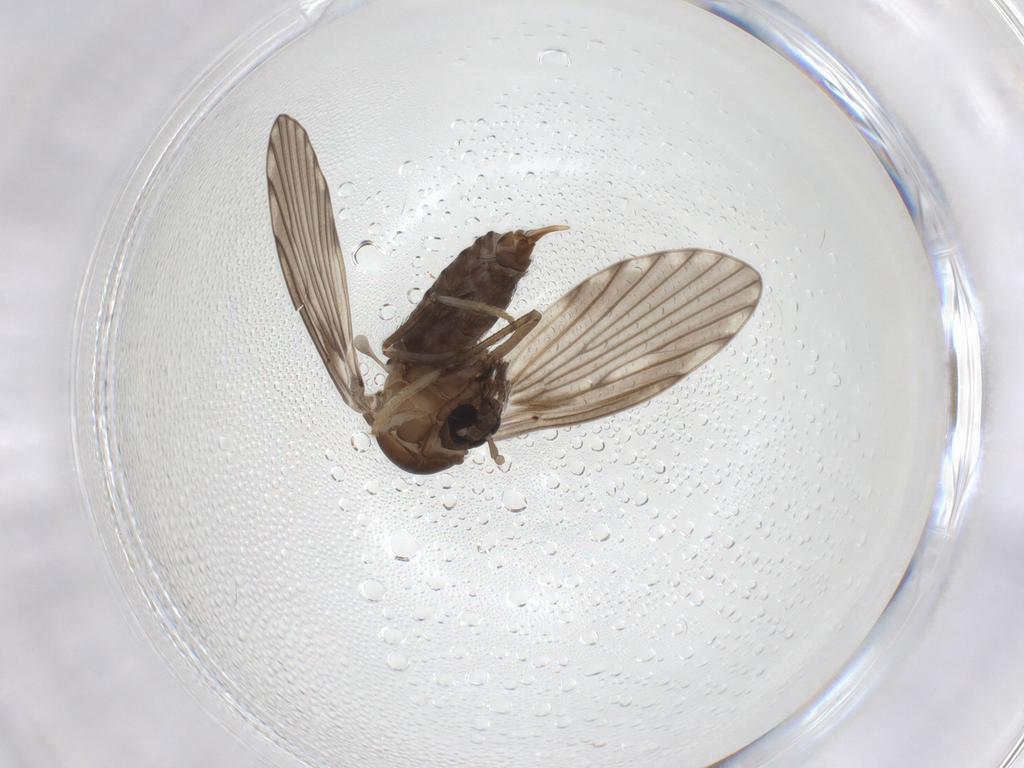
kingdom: Animalia
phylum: Arthropoda
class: Insecta
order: Diptera
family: Psychodidae
